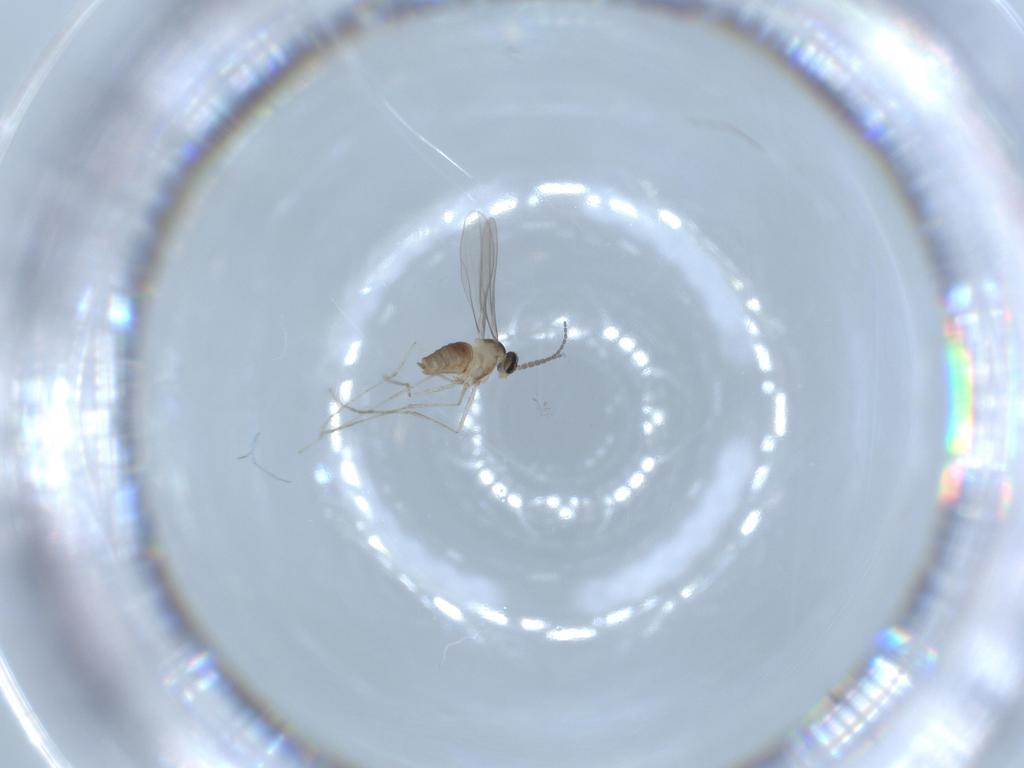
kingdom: Animalia
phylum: Arthropoda
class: Insecta
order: Diptera
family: Cecidomyiidae
